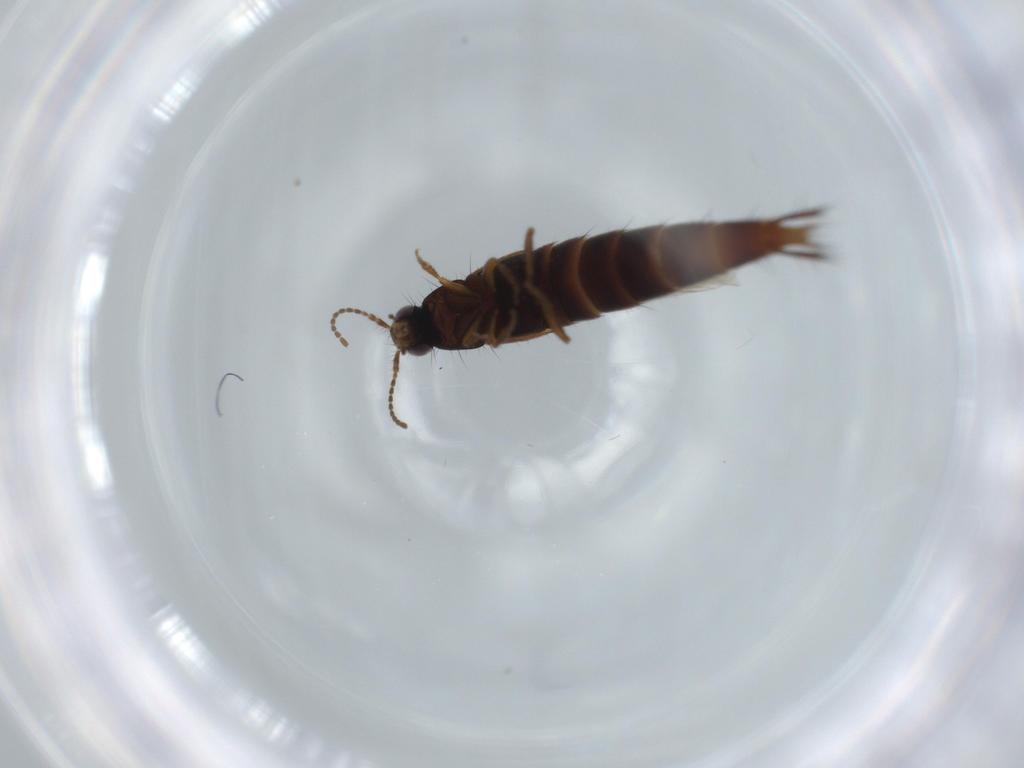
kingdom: Animalia
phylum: Arthropoda
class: Insecta
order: Coleoptera
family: Staphylinidae
